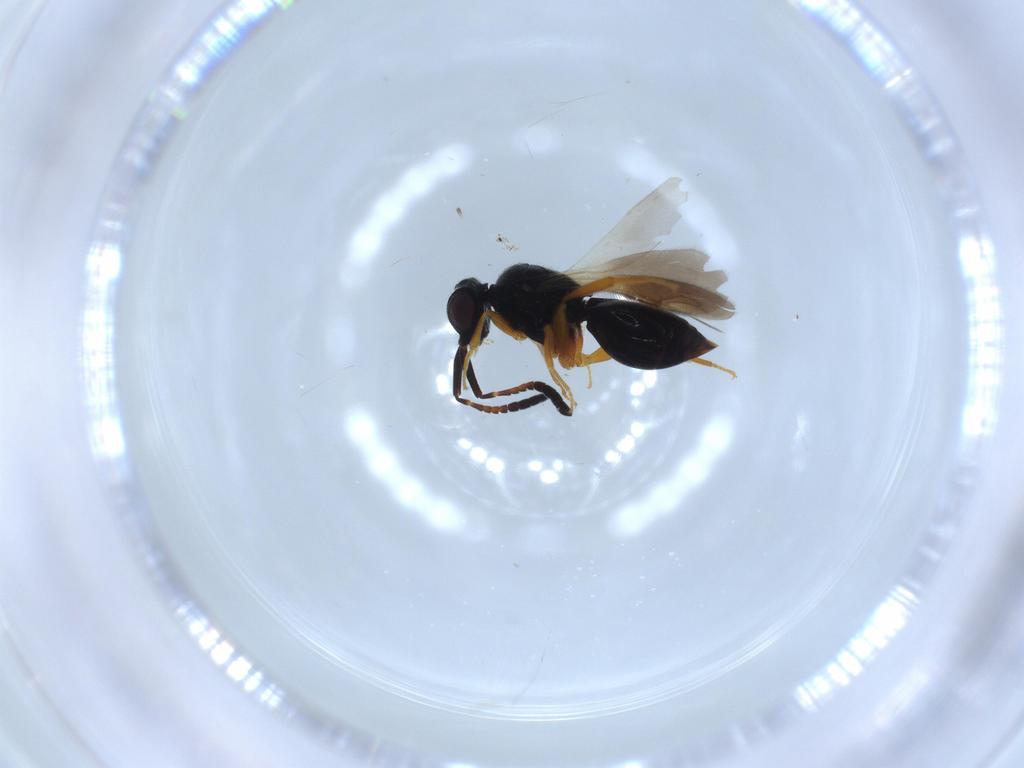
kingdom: Animalia
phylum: Arthropoda
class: Insecta
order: Hymenoptera
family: Ceraphronidae
